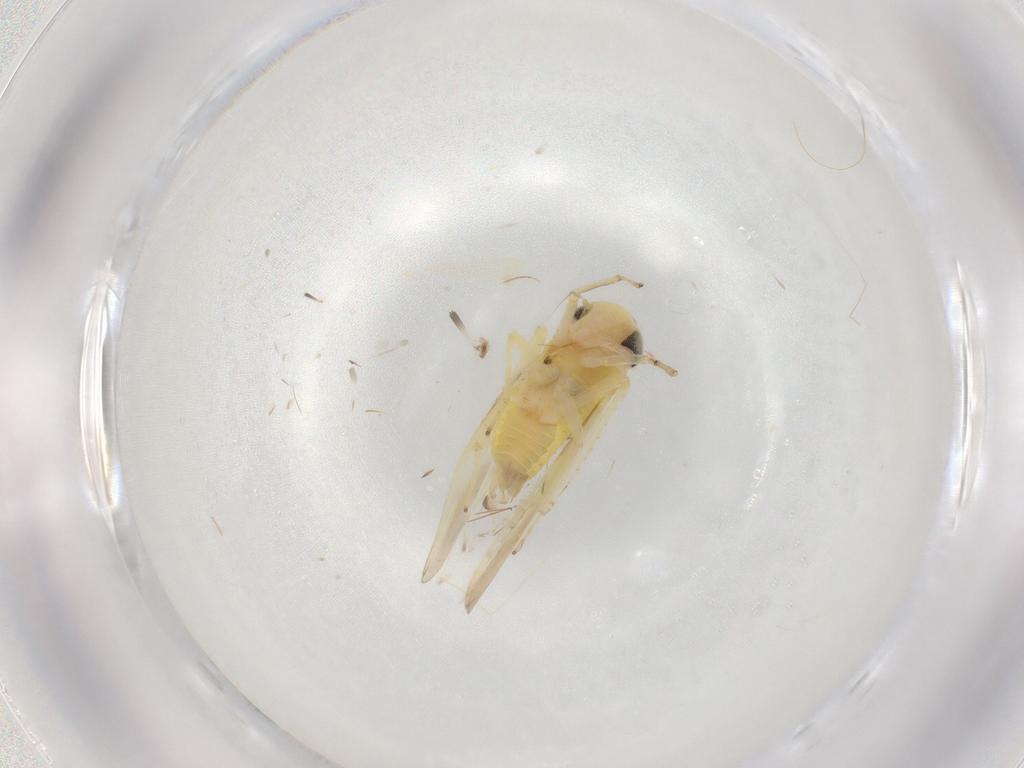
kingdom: Animalia
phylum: Arthropoda
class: Insecta
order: Hemiptera
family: Cicadellidae
